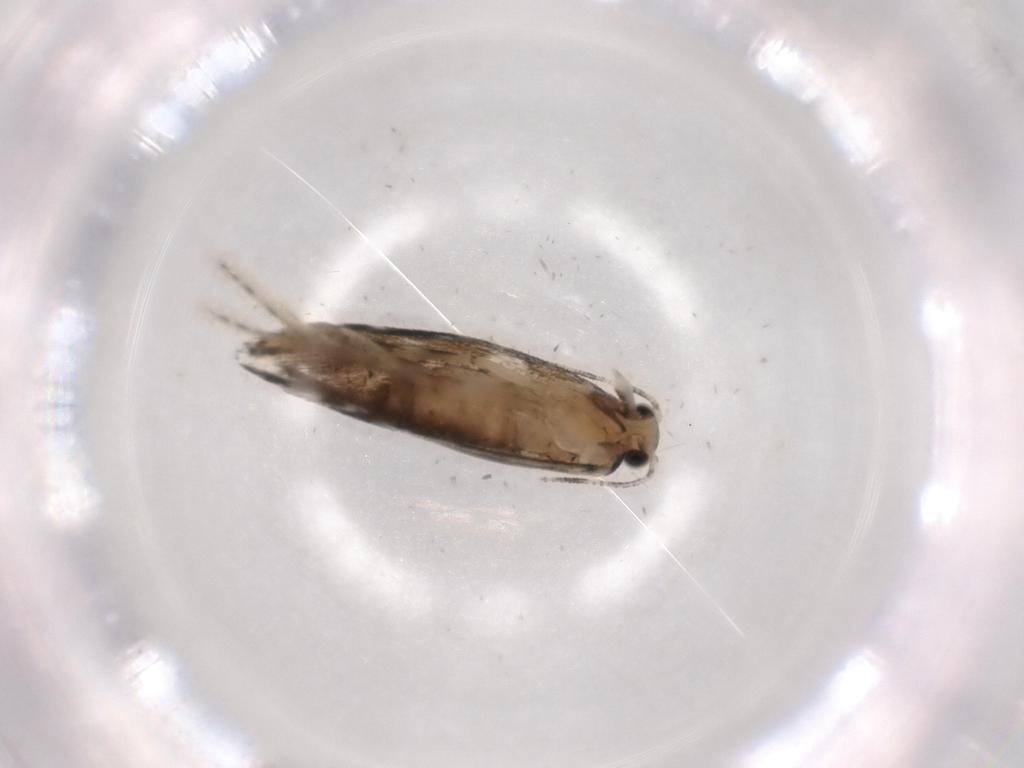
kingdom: Animalia
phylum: Arthropoda
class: Insecta
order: Lepidoptera
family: Tineidae
